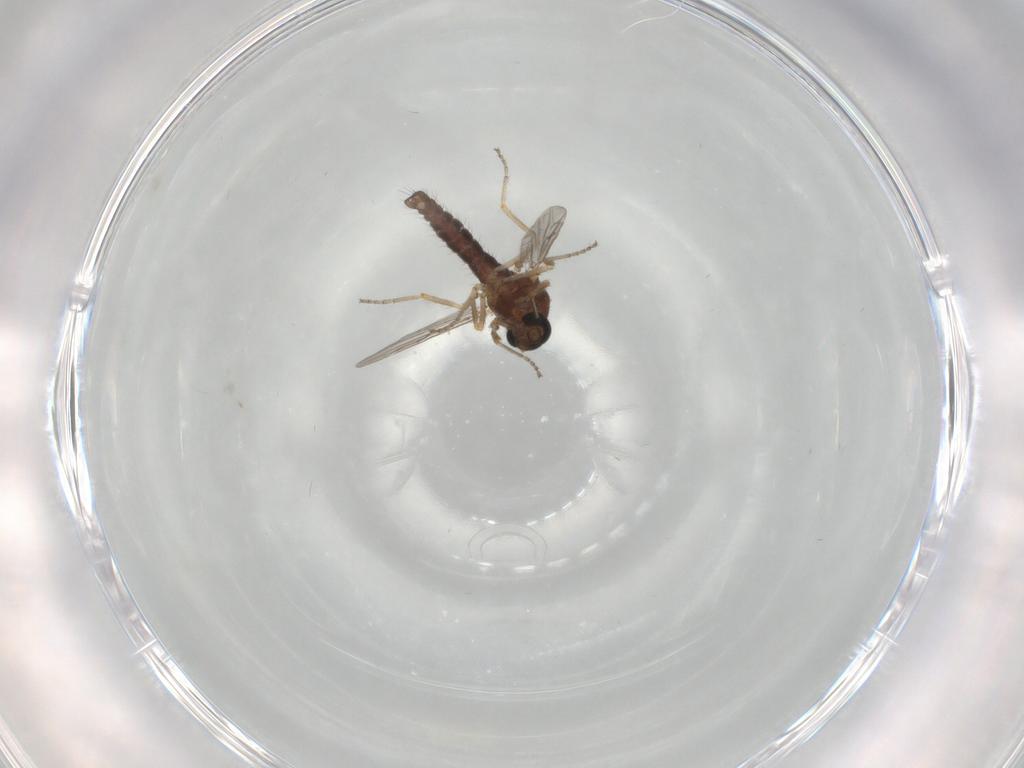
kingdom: Animalia
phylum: Arthropoda
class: Insecta
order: Diptera
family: Ceratopogonidae
